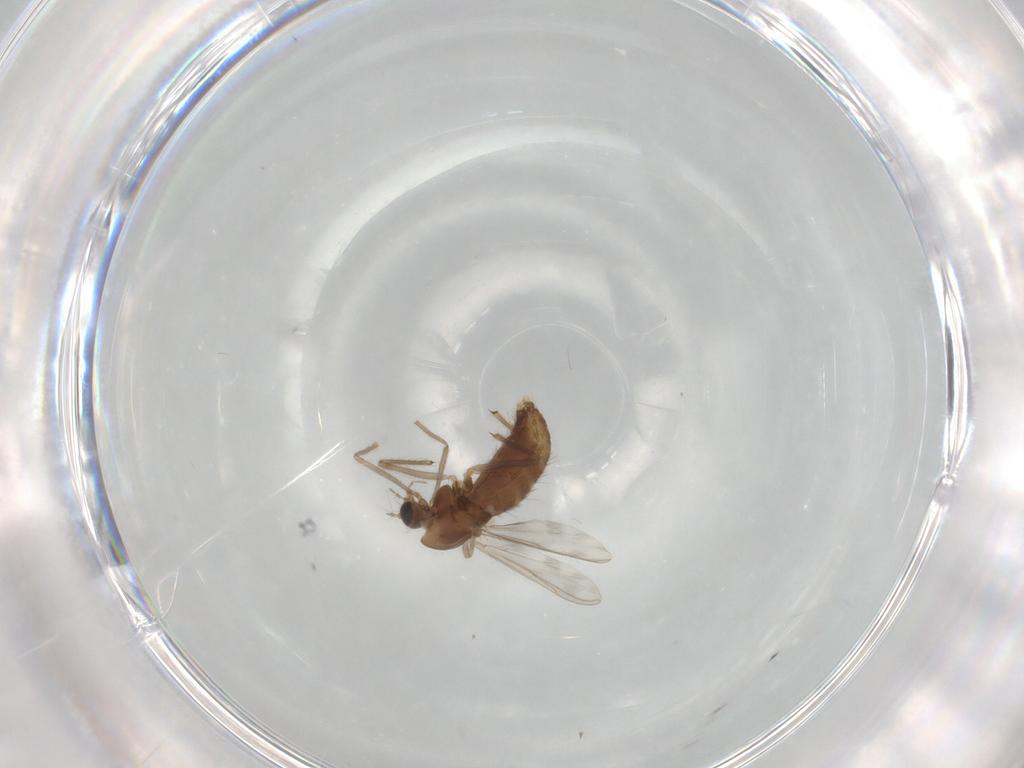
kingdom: Animalia
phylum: Arthropoda
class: Insecta
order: Diptera
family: Chironomidae
